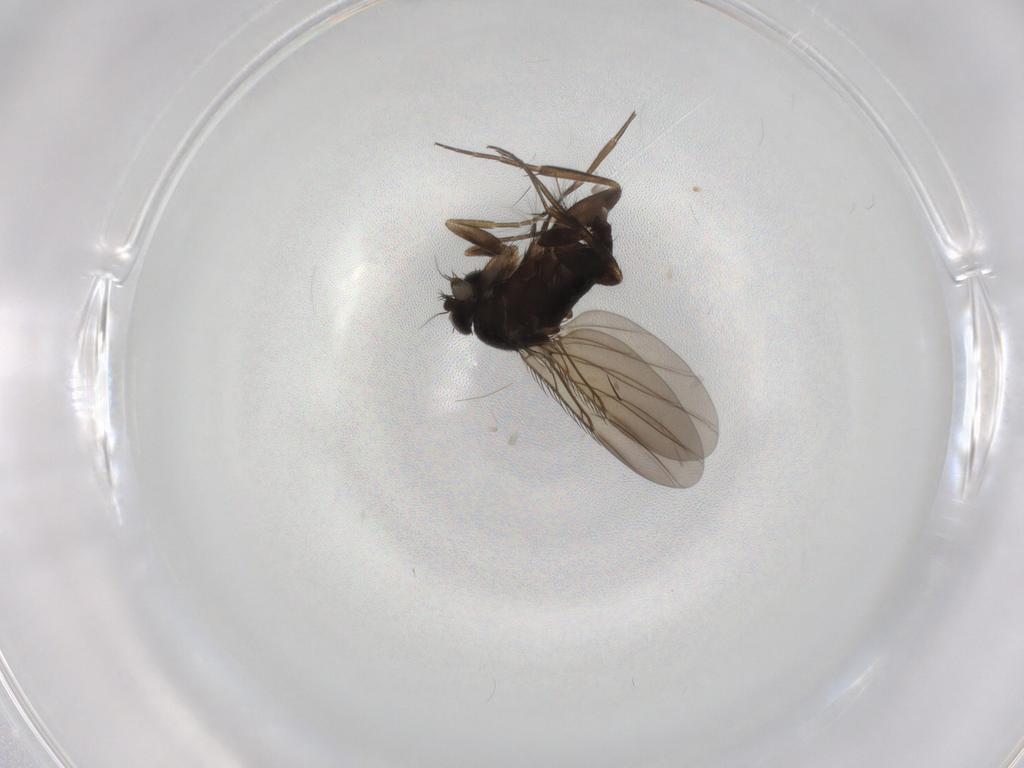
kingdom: Animalia
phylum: Arthropoda
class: Insecta
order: Diptera
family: Phoridae
